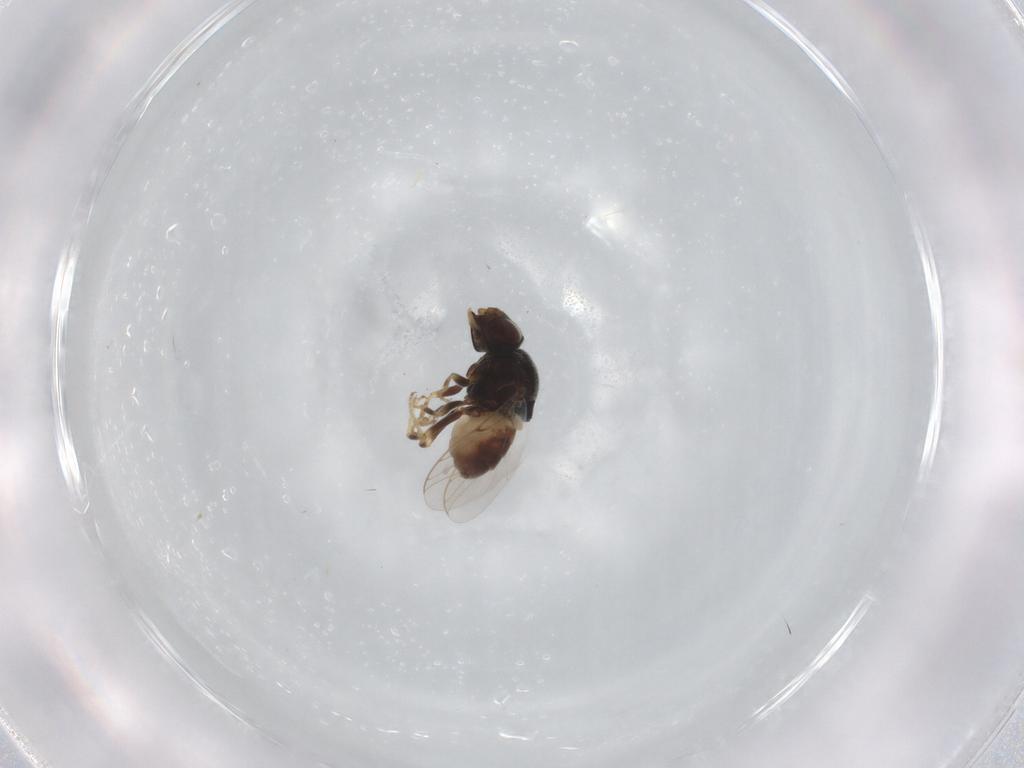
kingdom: Animalia
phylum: Arthropoda
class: Insecta
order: Diptera
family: Chloropidae
